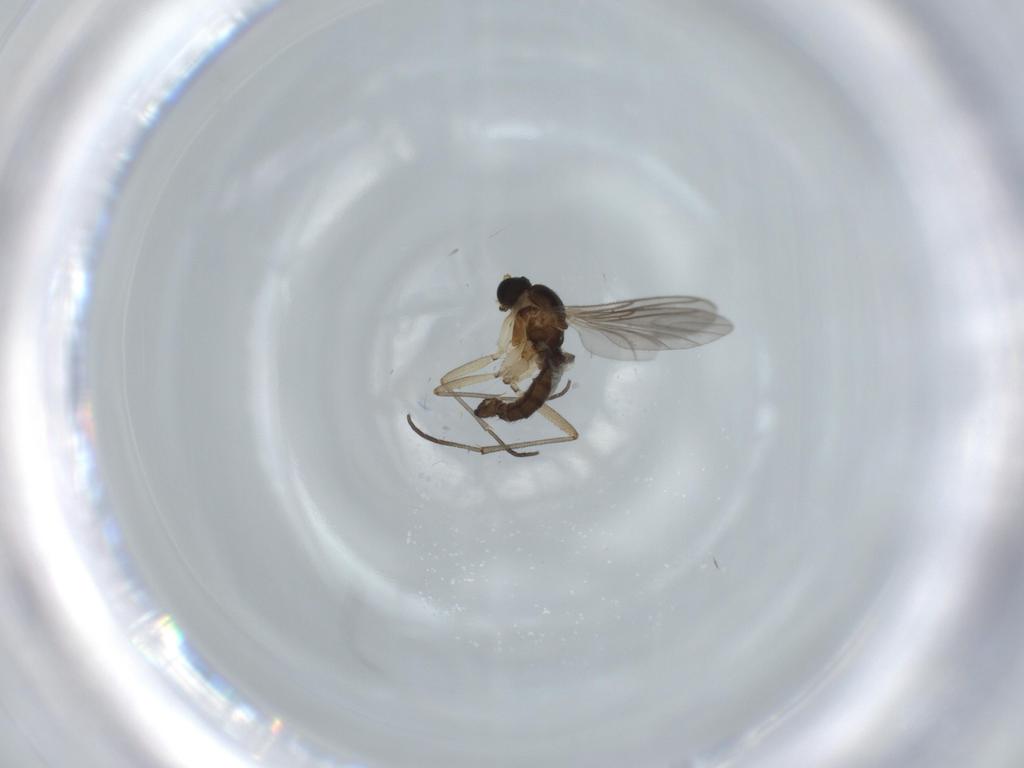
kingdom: Animalia
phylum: Arthropoda
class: Insecta
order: Diptera
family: Sciaridae
